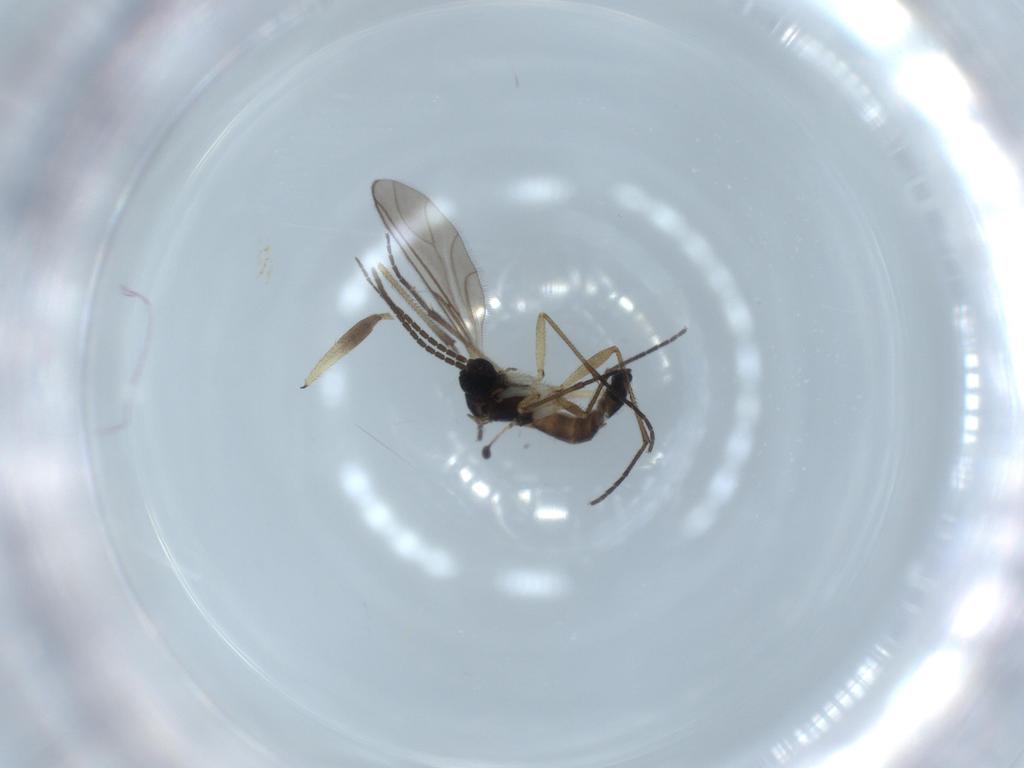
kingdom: Animalia
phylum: Arthropoda
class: Insecta
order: Diptera
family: Sciaridae
